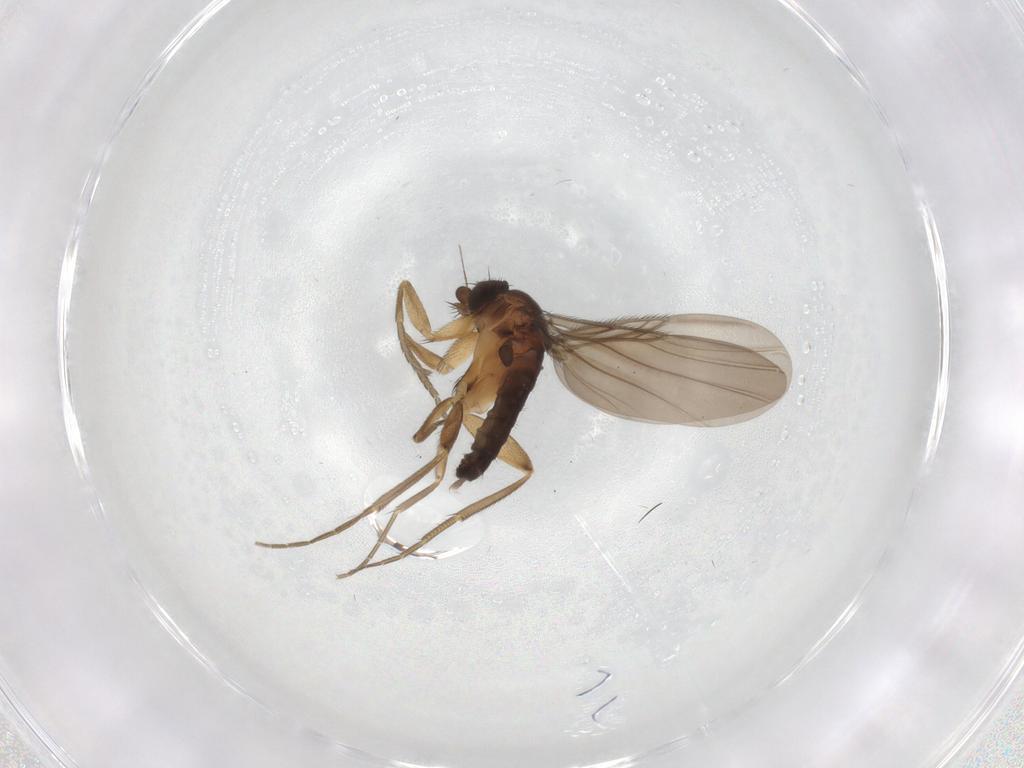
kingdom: Animalia
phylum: Arthropoda
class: Insecta
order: Diptera
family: Phoridae
